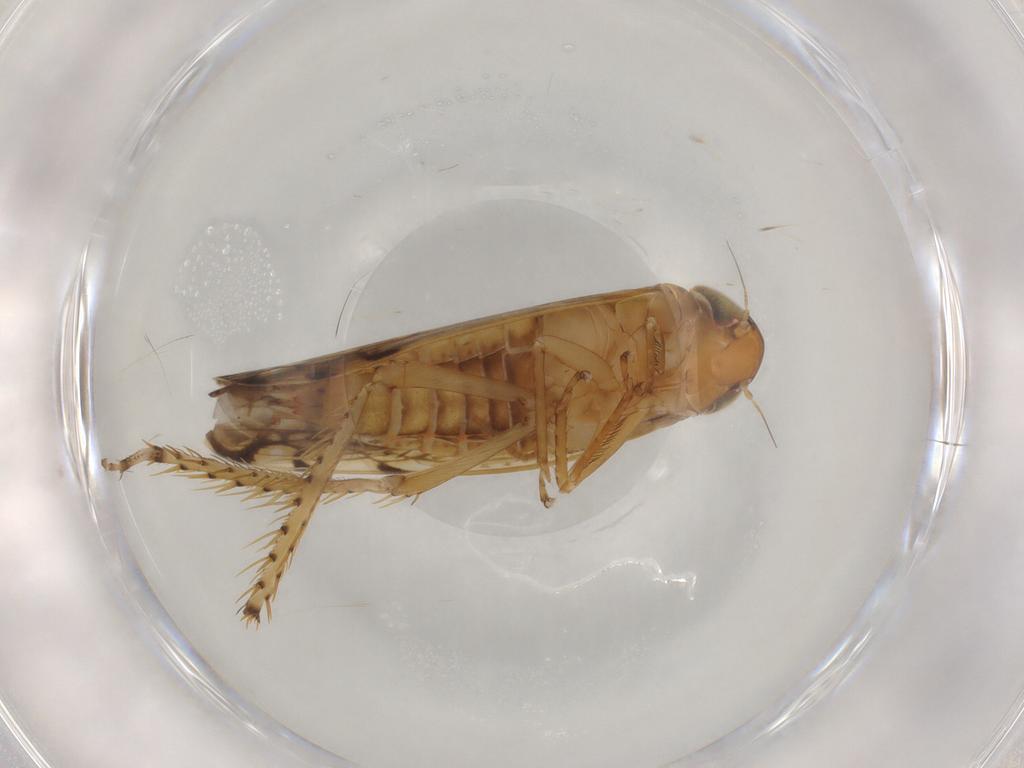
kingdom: Animalia
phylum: Arthropoda
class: Insecta
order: Hemiptera
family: Cicadellidae
